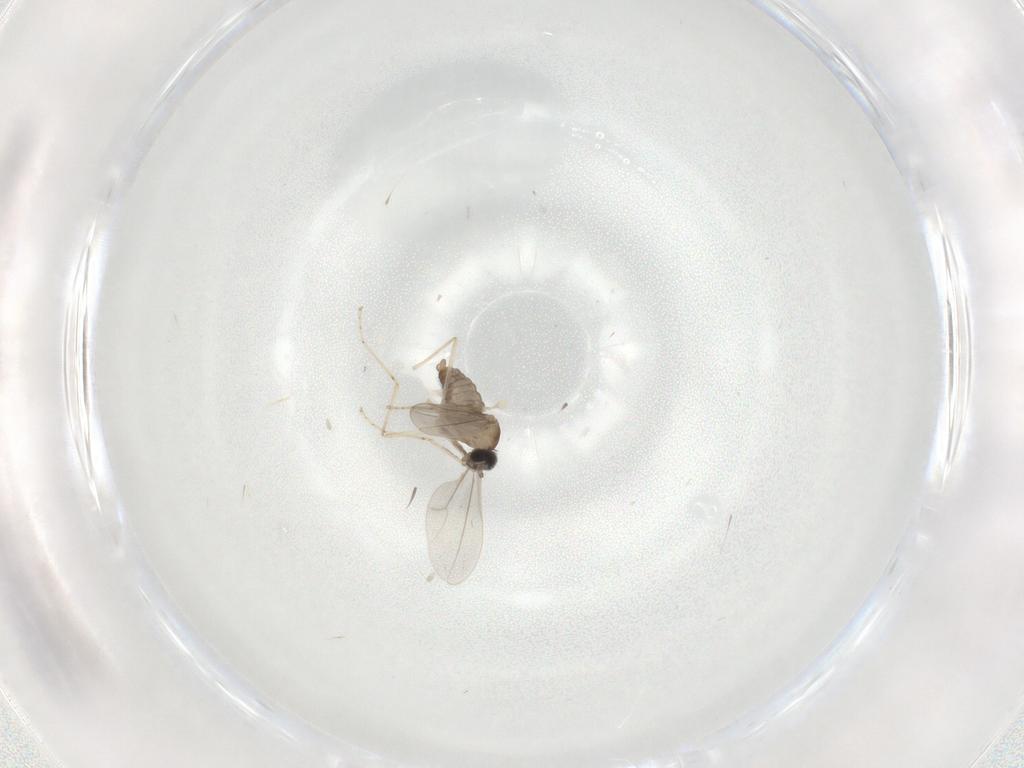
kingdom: Animalia
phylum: Arthropoda
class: Insecta
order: Diptera
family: Cecidomyiidae
